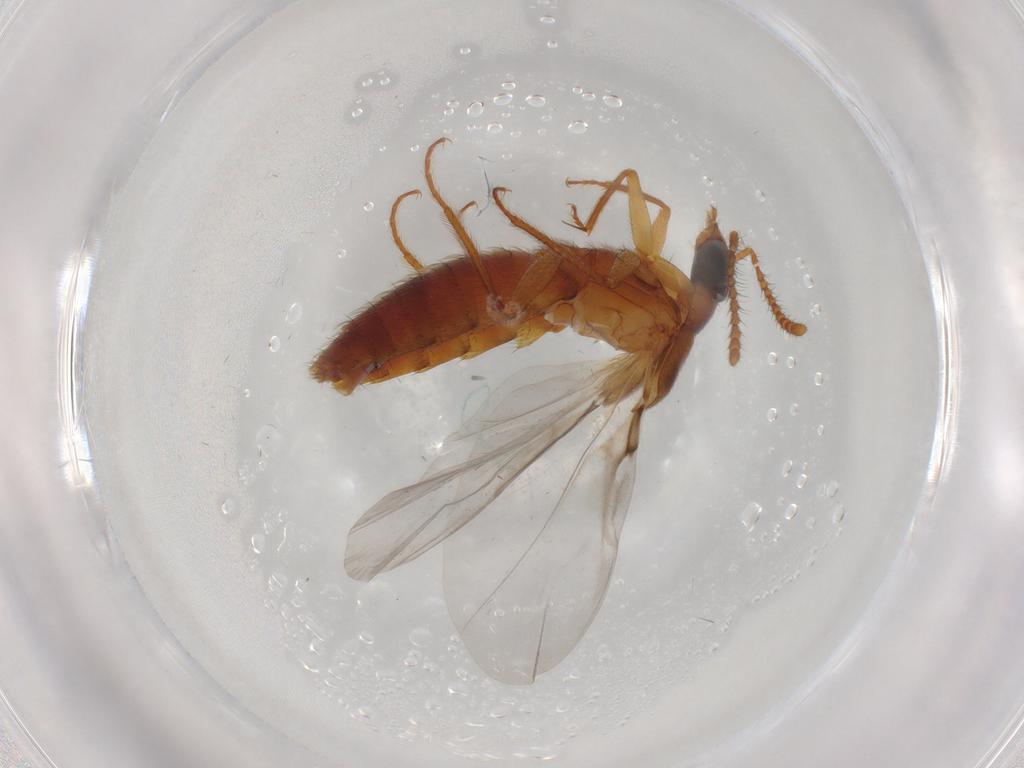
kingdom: Animalia
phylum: Arthropoda
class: Insecta
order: Coleoptera
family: Staphylinidae
